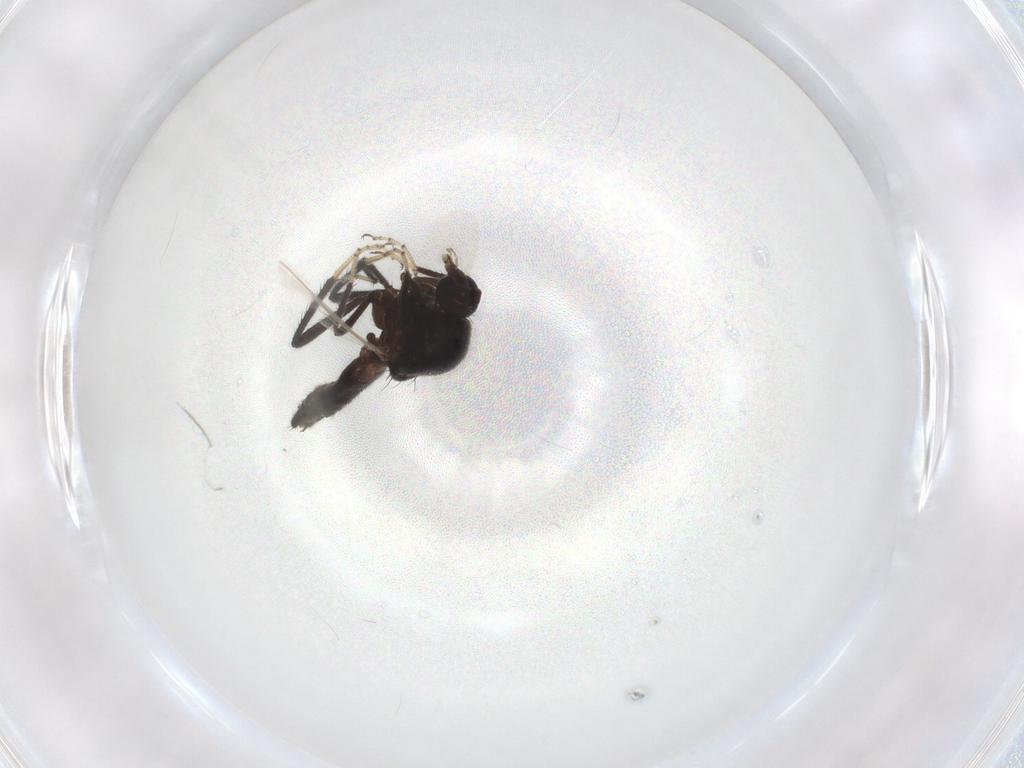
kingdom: Animalia
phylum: Arthropoda
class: Insecta
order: Diptera
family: Ceratopogonidae
